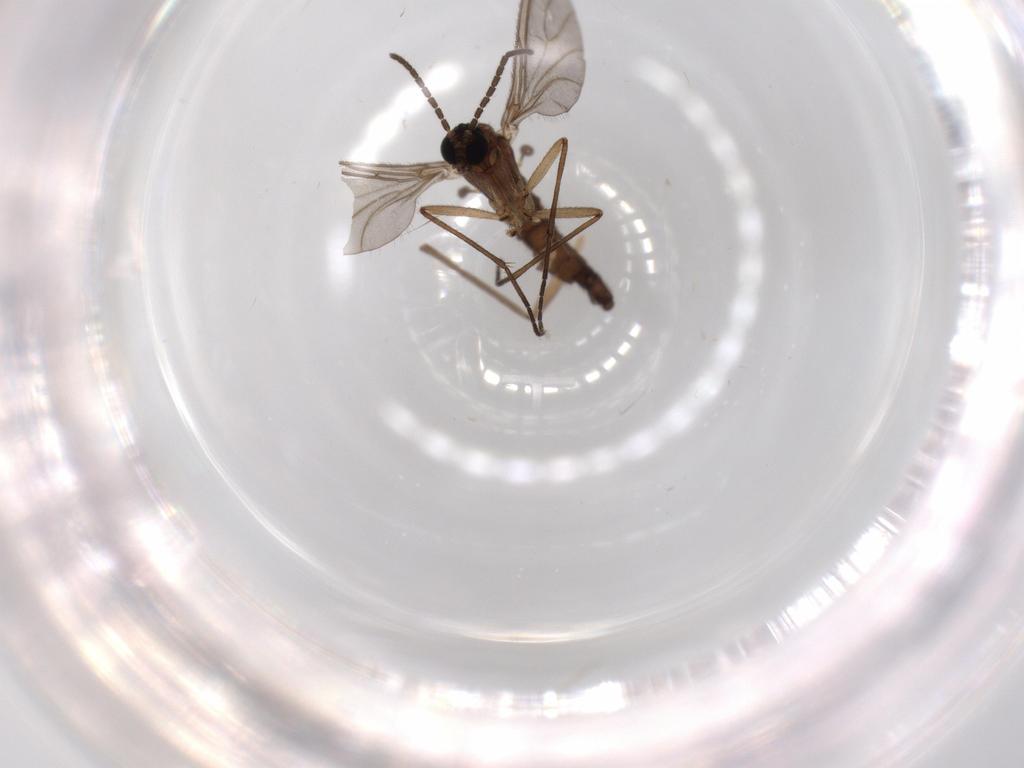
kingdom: Animalia
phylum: Arthropoda
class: Insecta
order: Diptera
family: Sciaridae
